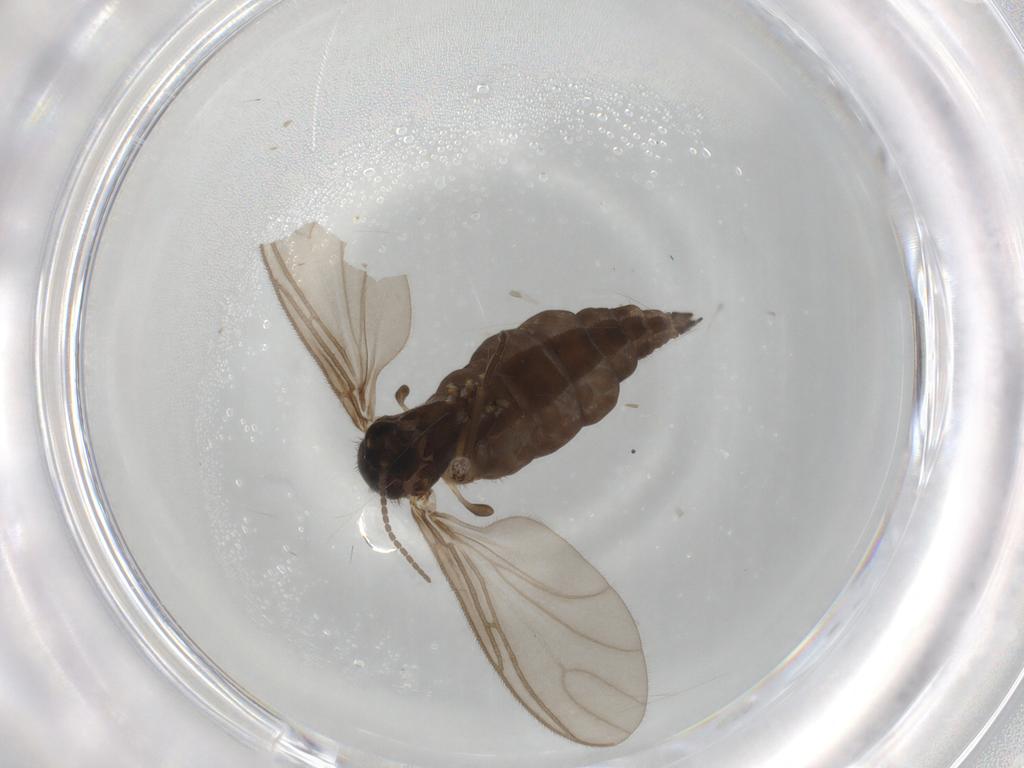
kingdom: Animalia
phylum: Arthropoda
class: Insecta
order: Diptera
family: Sciaridae
